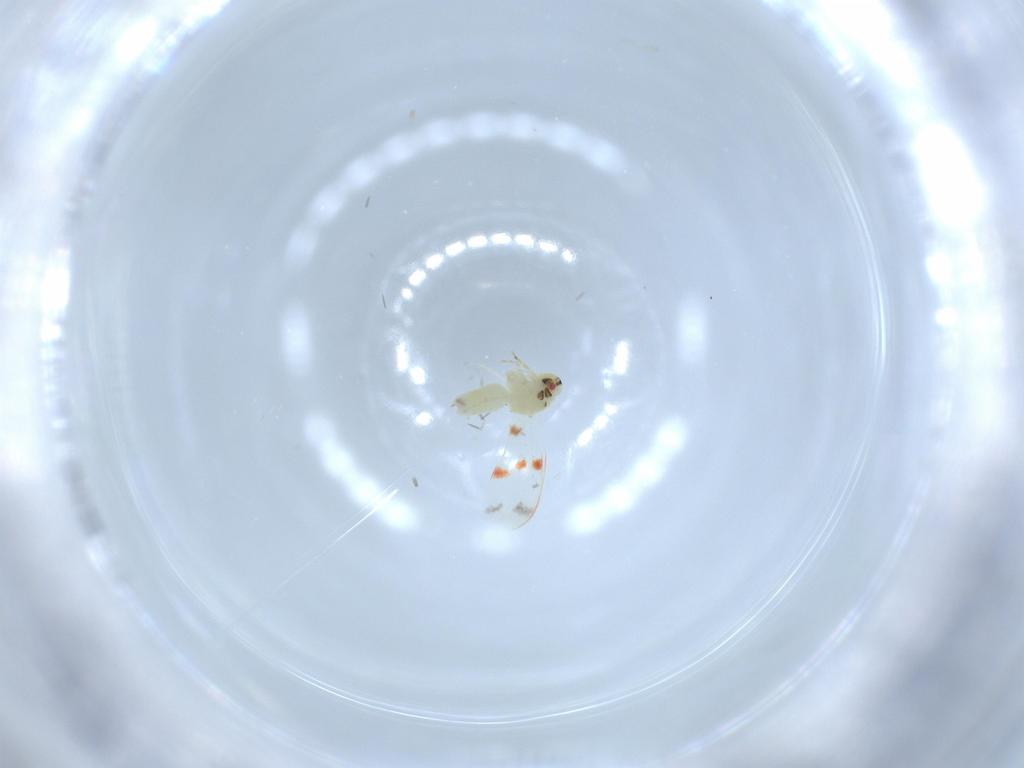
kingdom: Animalia
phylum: Arthropoda
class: Insecta
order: Hemiptera
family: Aleyrodidae
